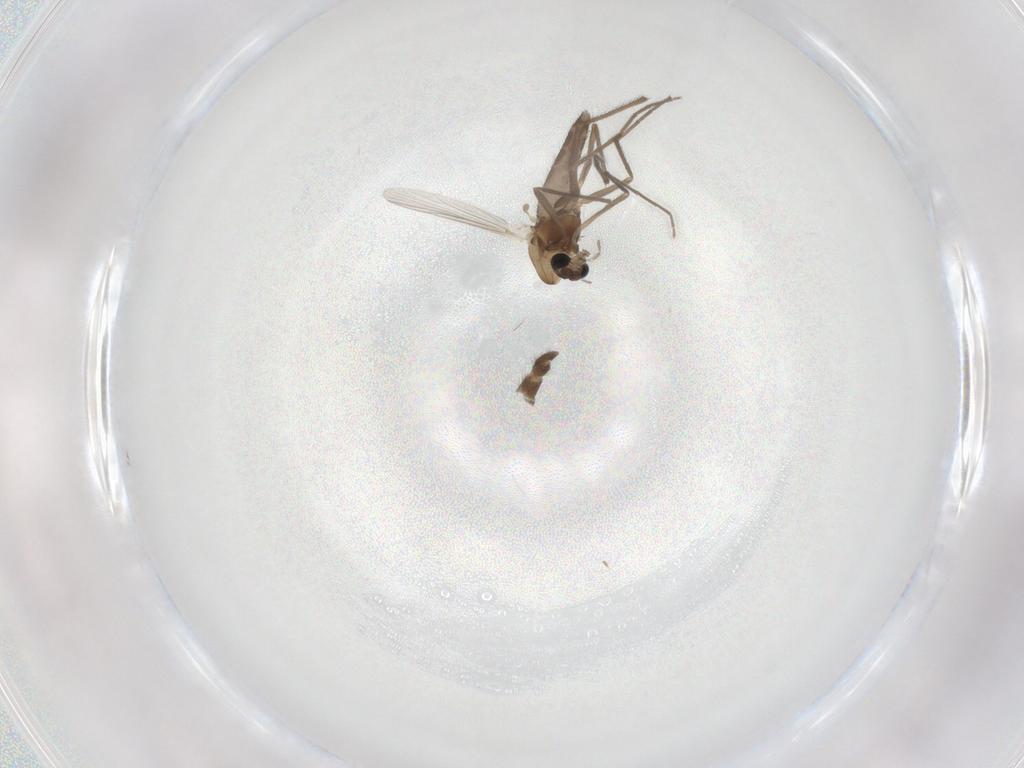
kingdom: Animalia
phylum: Arthropoda
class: Insecta
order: Diptera
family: Chironomidae
